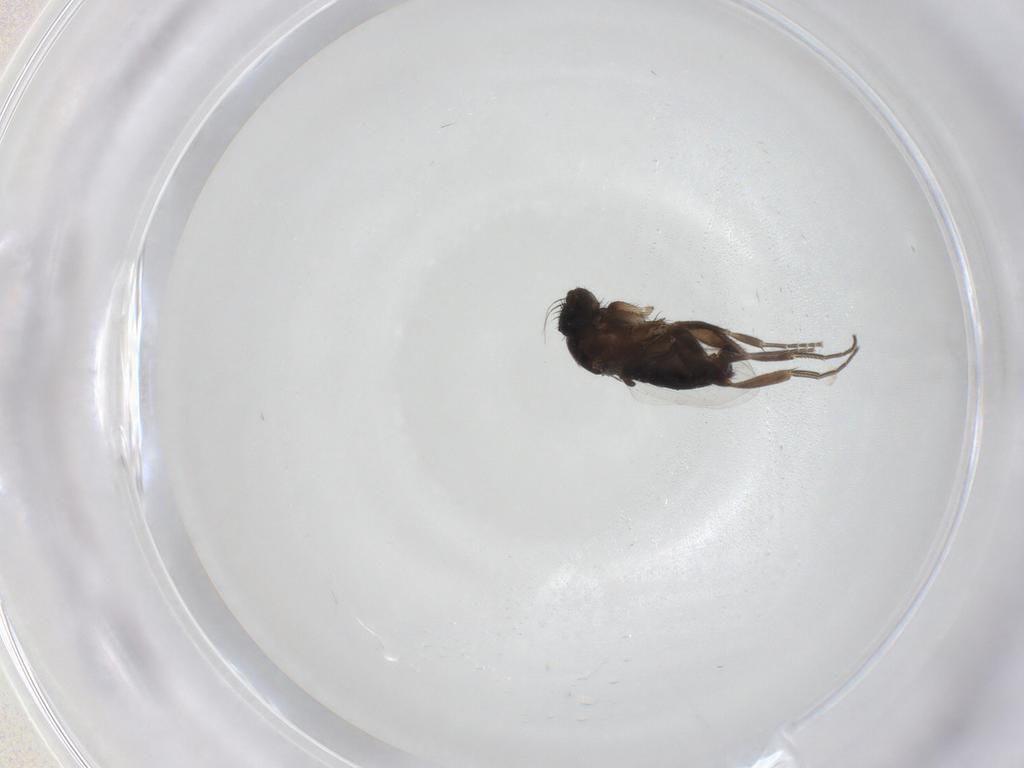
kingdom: Animalia
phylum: Arthropoda
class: Insecta
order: Diptera
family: Phoridae
